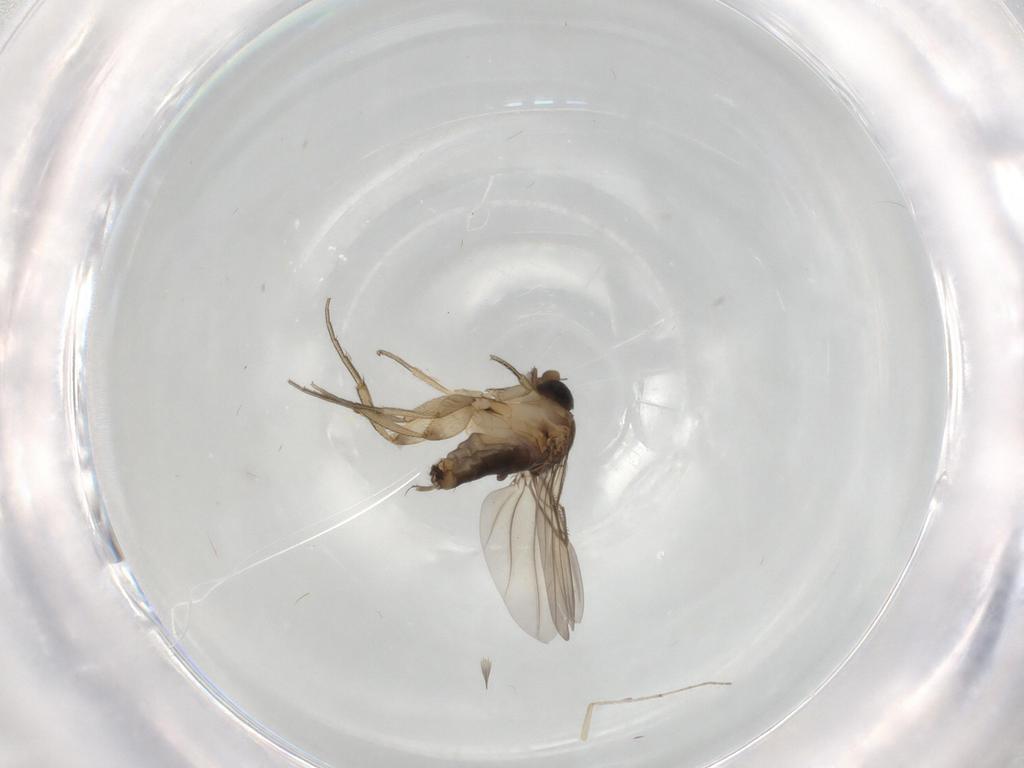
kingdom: Animalia
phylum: Arthropoda
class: Insecta
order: Diptera
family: Chironomidae
